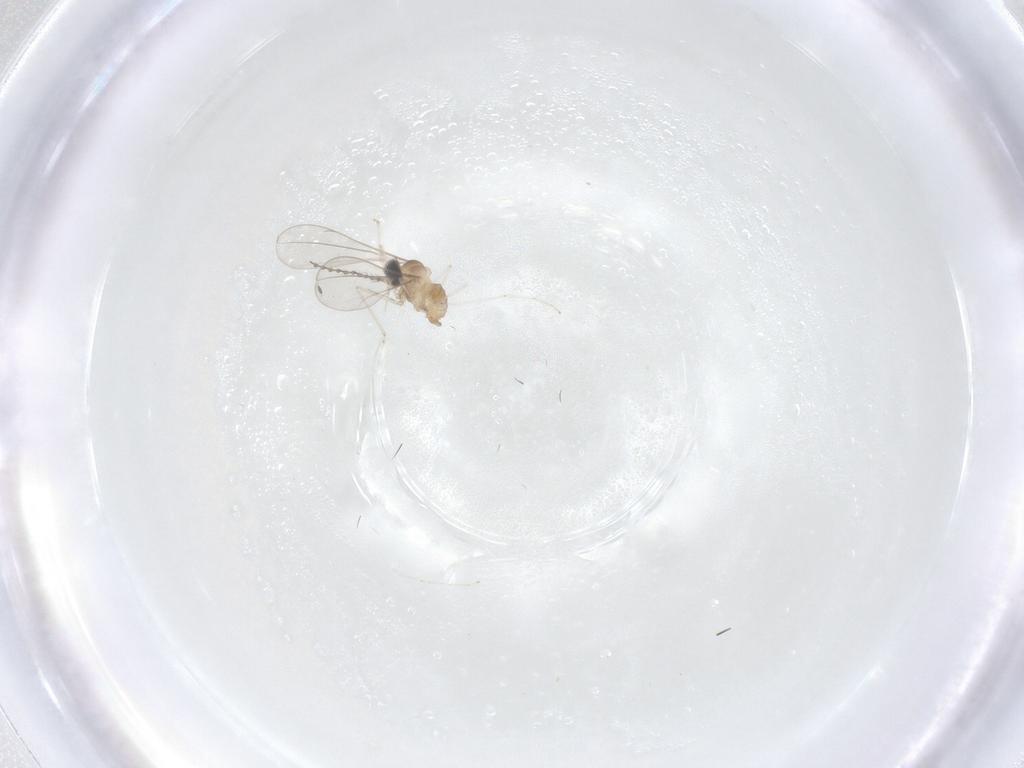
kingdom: Animalia
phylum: Arthropoda
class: Insecta
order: Diptera
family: Cecidomyiidae
